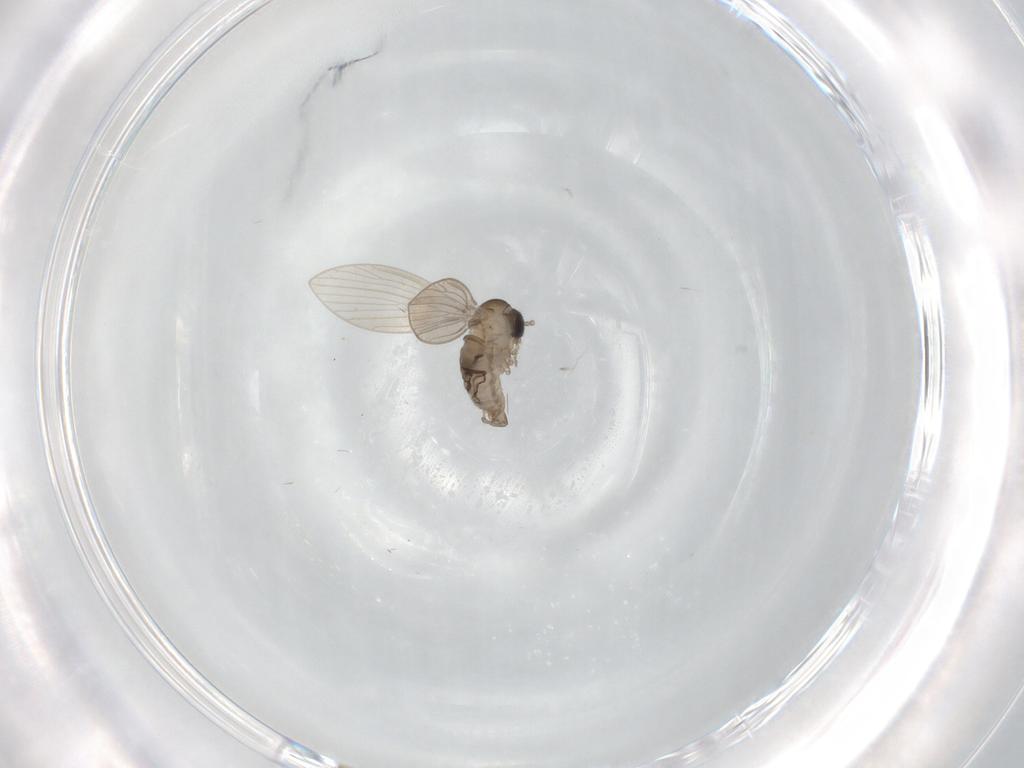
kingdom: Animalia
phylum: Arthropoda
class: Insecta
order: Diptera
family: Psychodidae
